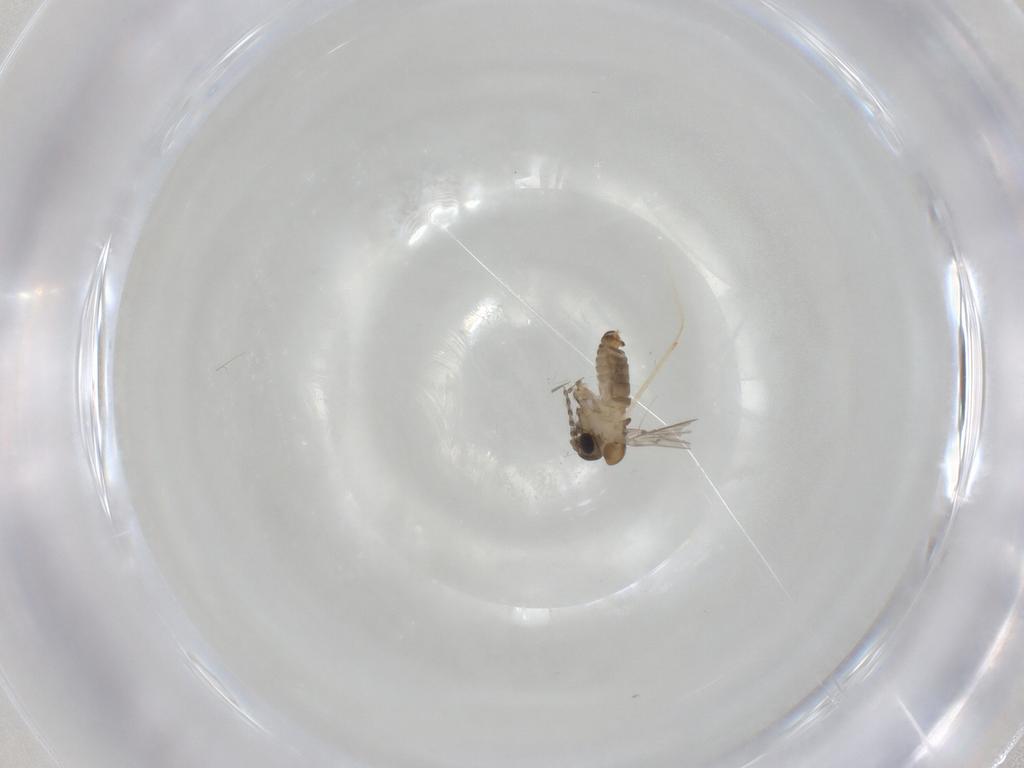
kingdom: Animalia
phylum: Arthropoda
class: Insecta
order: Diptera
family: Psychodidae
